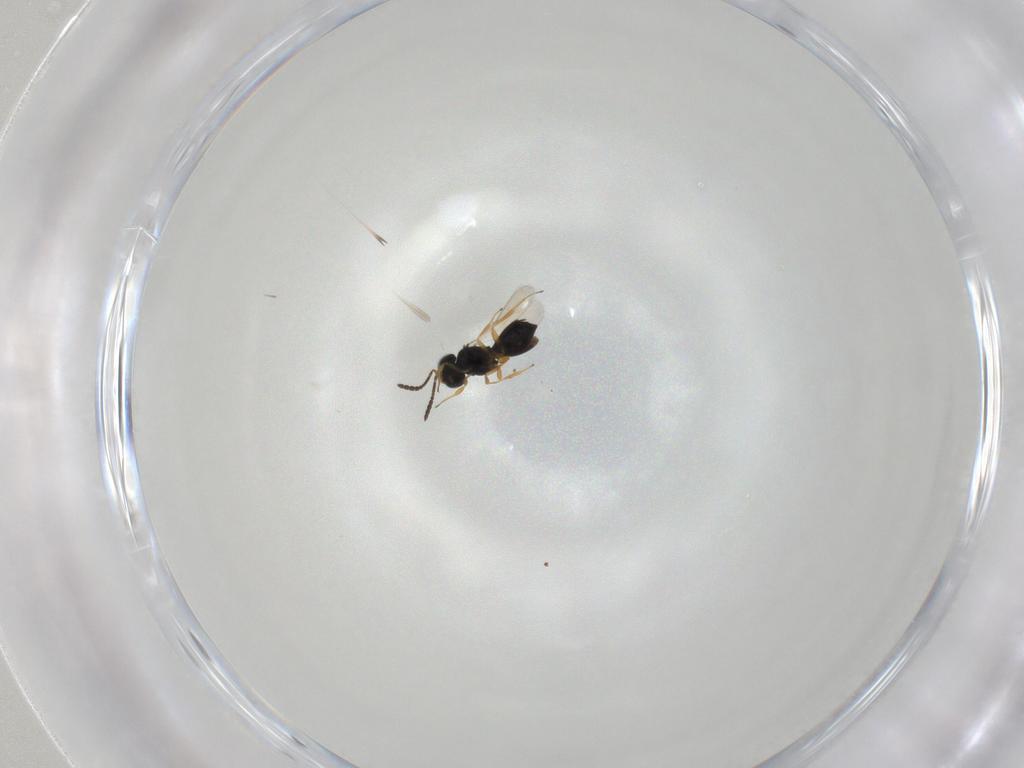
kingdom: Animalia
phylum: Arthropoda
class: Insecta
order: Hymenoptera
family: Scelionidae
